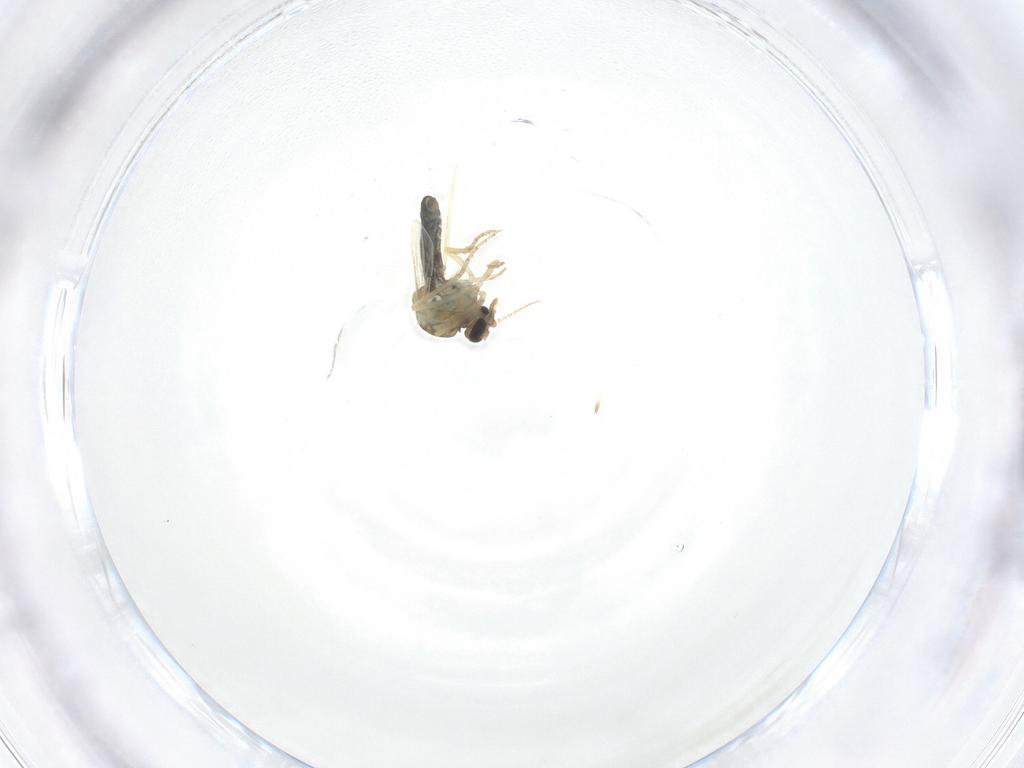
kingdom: Animalia
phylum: Arthropoda
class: Insecta
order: Diptera
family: Ceratopogonidae
